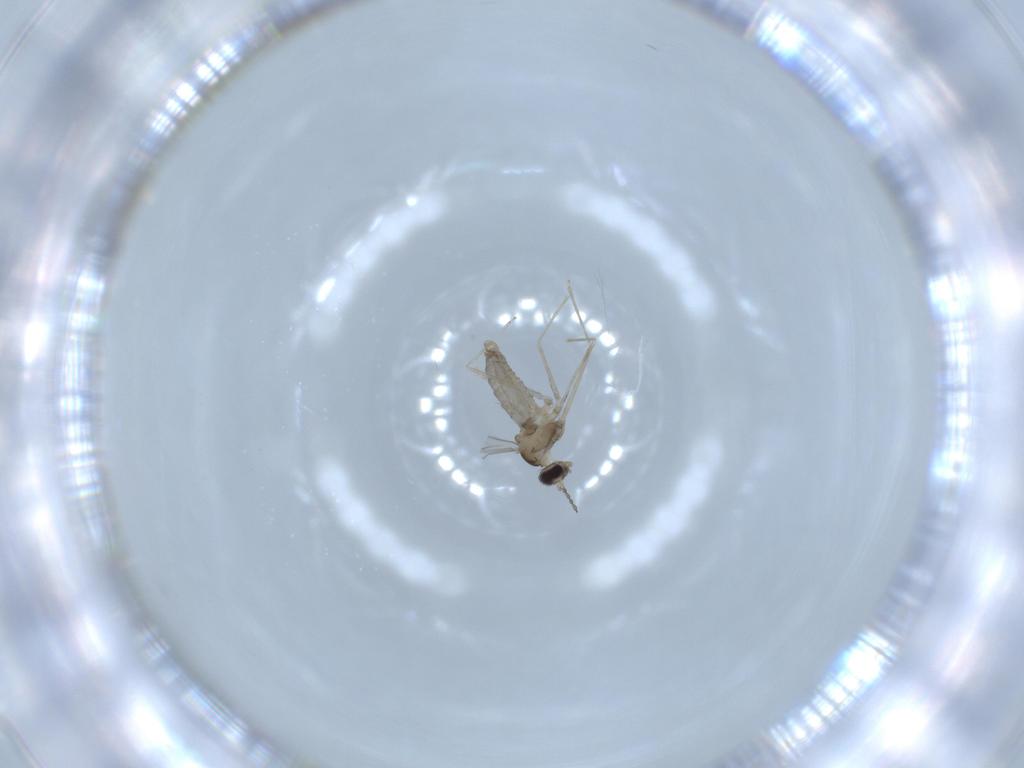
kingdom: Animalia
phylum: Arthropoda
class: Insecta
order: Diptera
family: Cecidomyiidae
